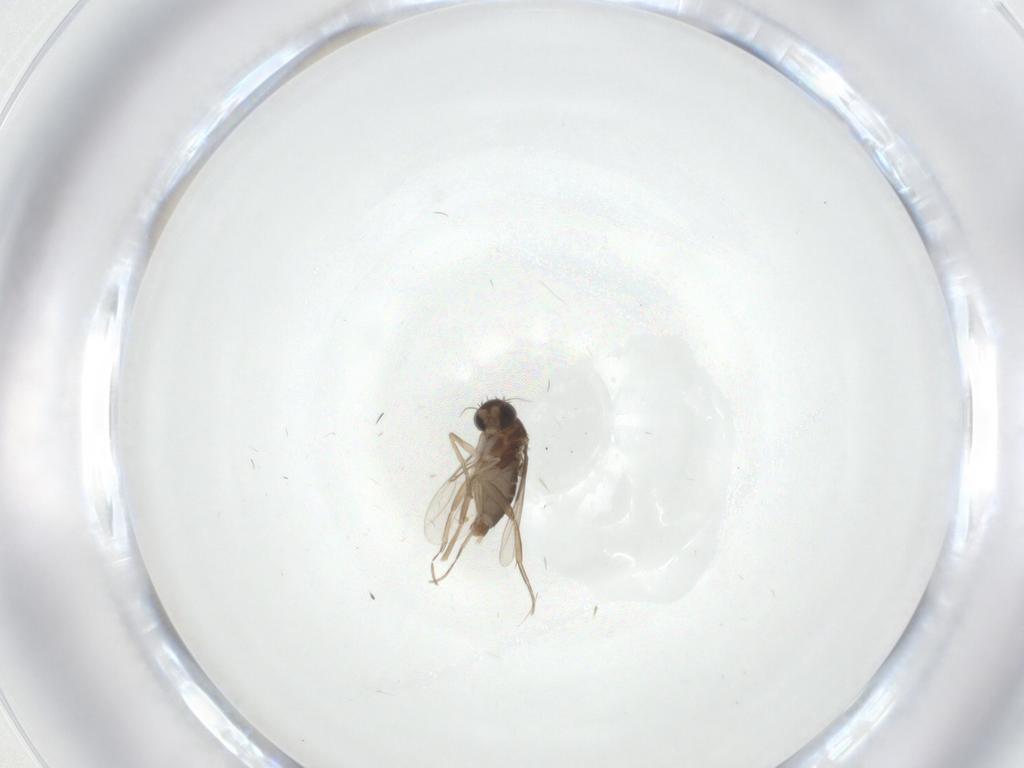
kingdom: Animalia
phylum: Arthropoda
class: Insecta
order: Diptera
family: Phoridae
